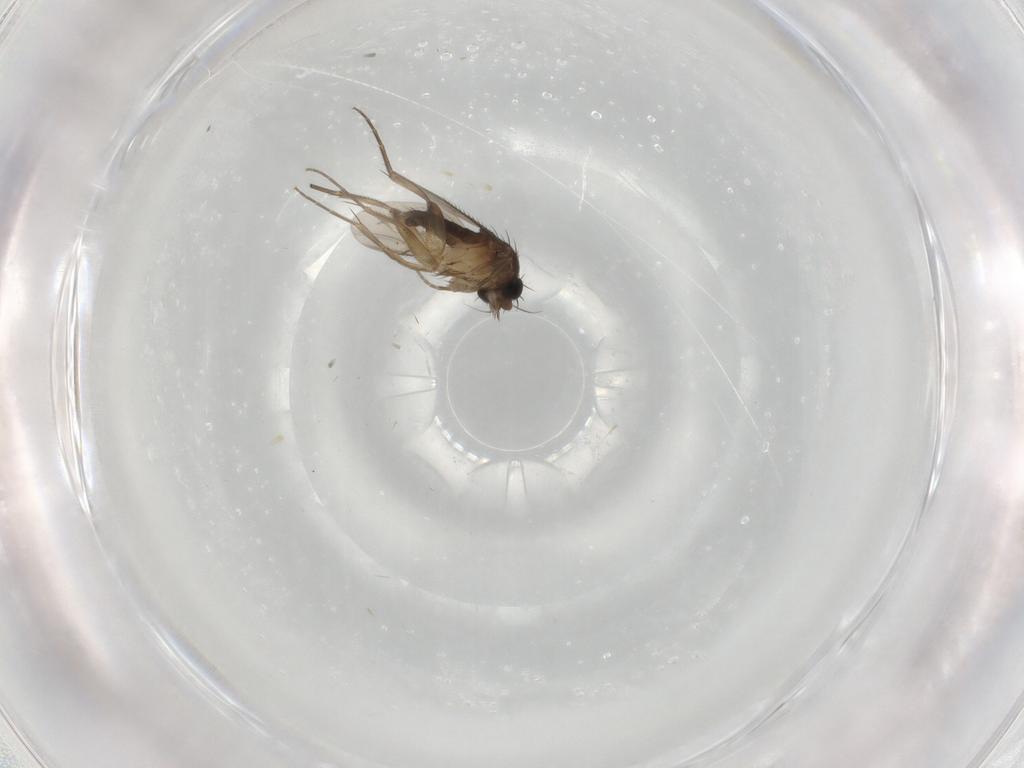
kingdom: Animalia
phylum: Arthropoda
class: Insecta
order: Diptera
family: Phoridae
